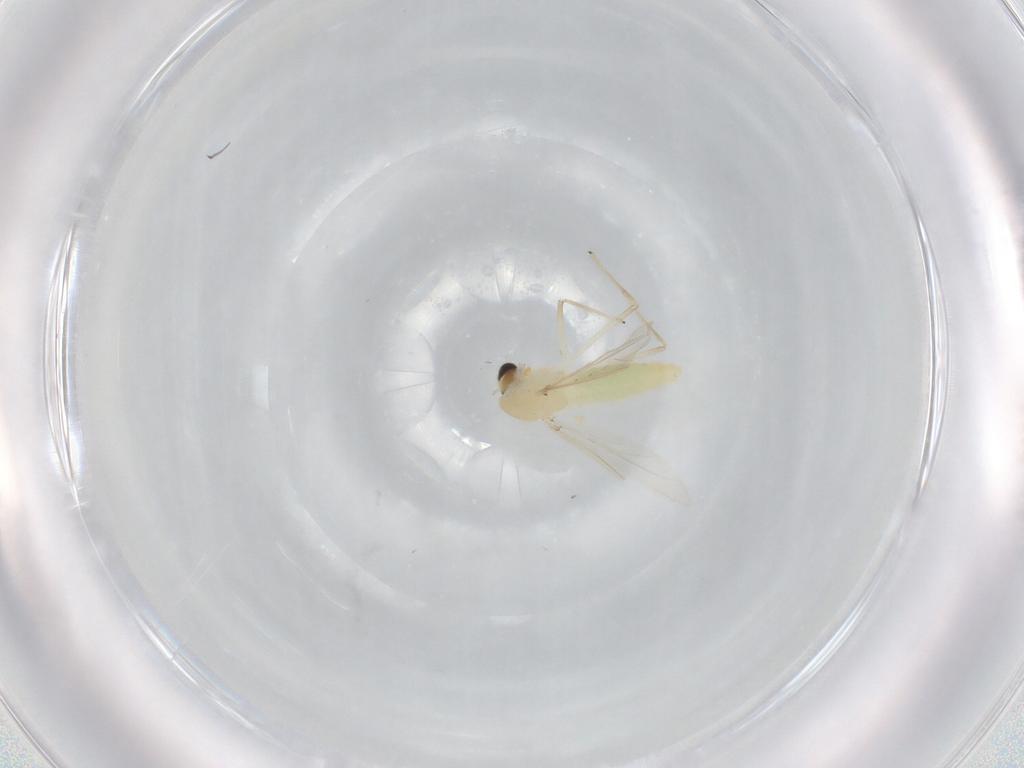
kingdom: Animalia
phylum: Arthropoda
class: Insecta
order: Diptera
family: Chironomidae
